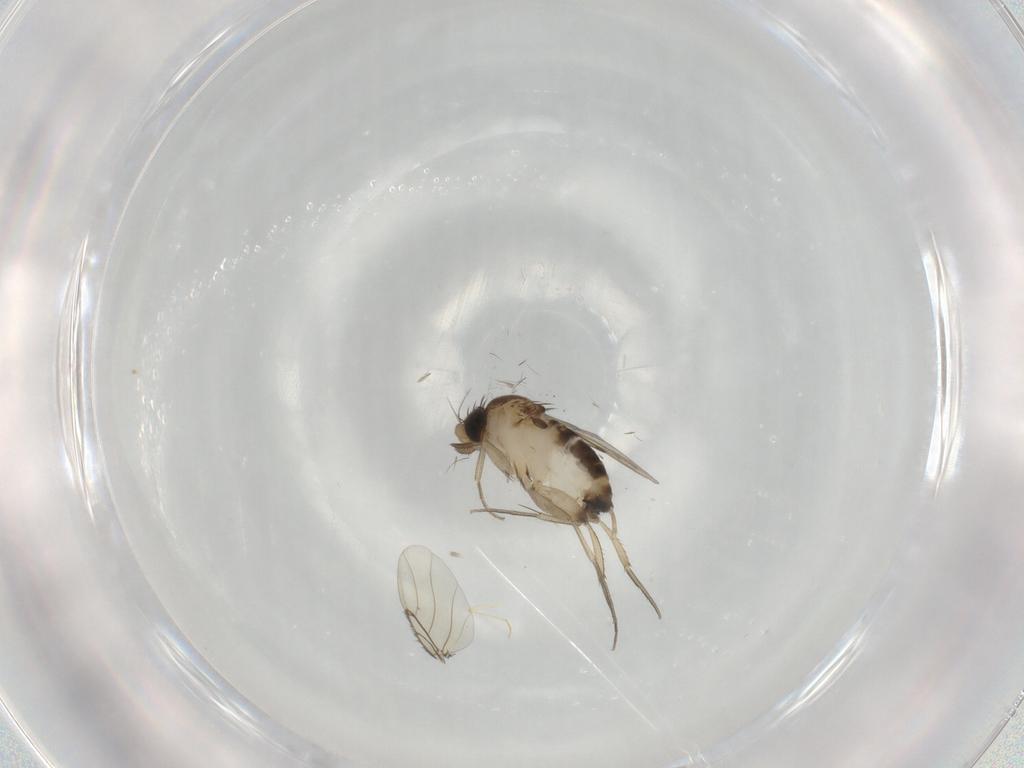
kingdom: Animalia
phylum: Arthropoda
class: Insecta
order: Diptera
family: Phoridae
